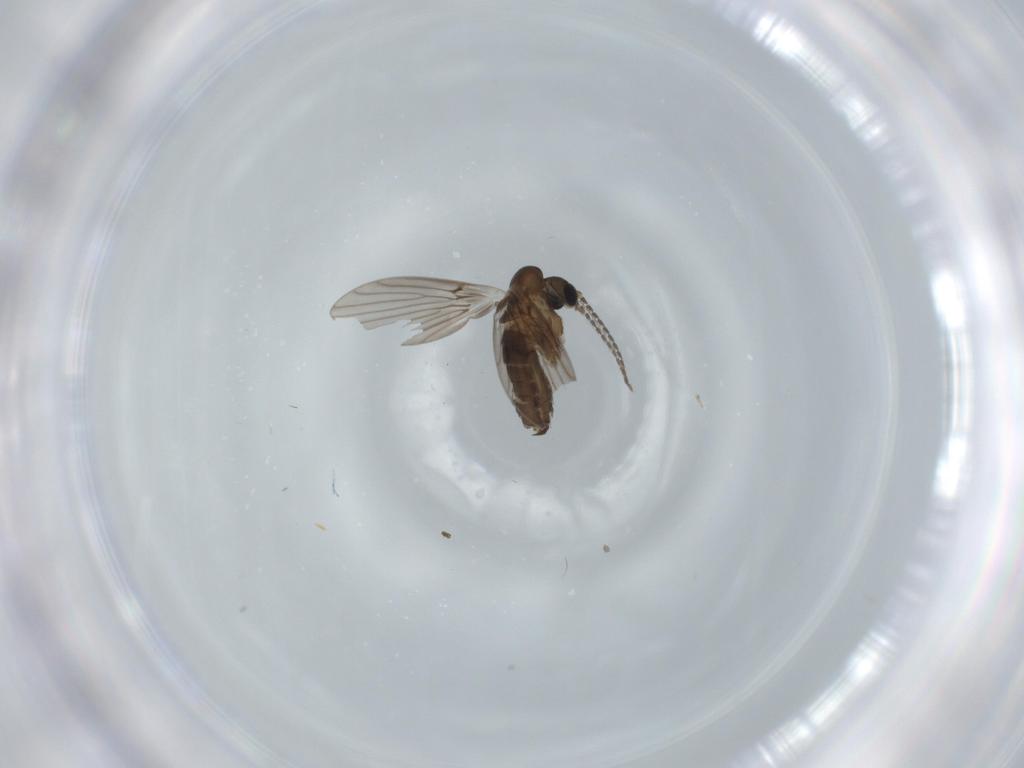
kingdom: Animalia
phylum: Arthropoda
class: Insecta
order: Diptera
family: Psychodidae
